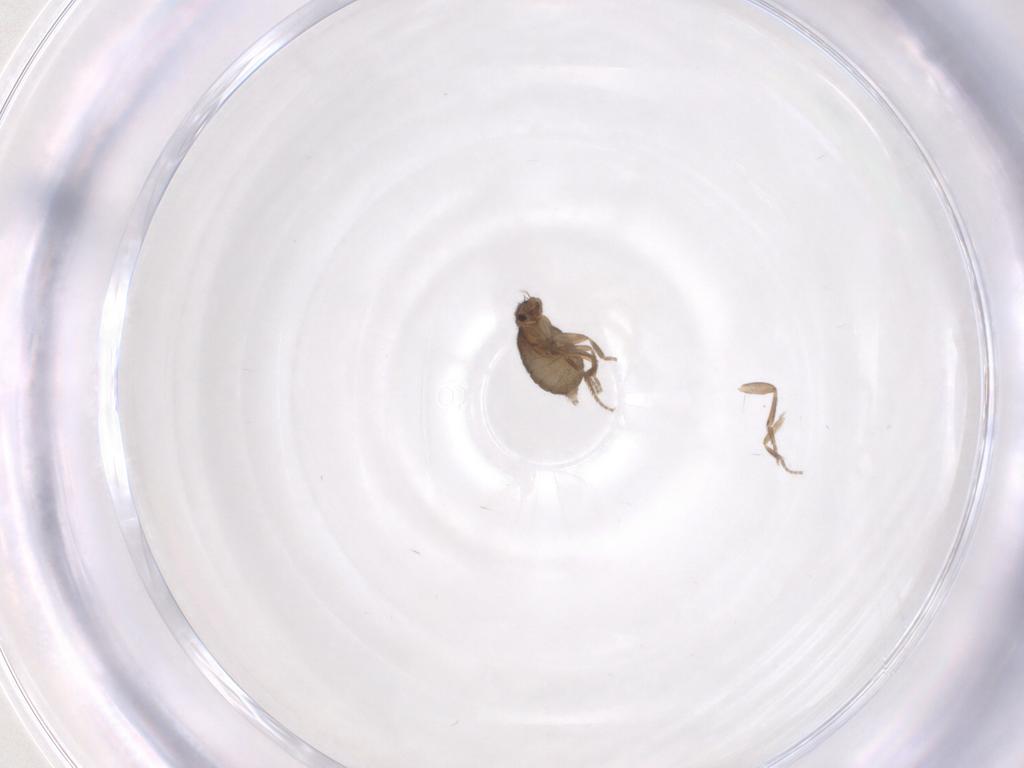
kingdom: Animalia
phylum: Arthropoda
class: Insecta
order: Diptera
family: Phoridae
